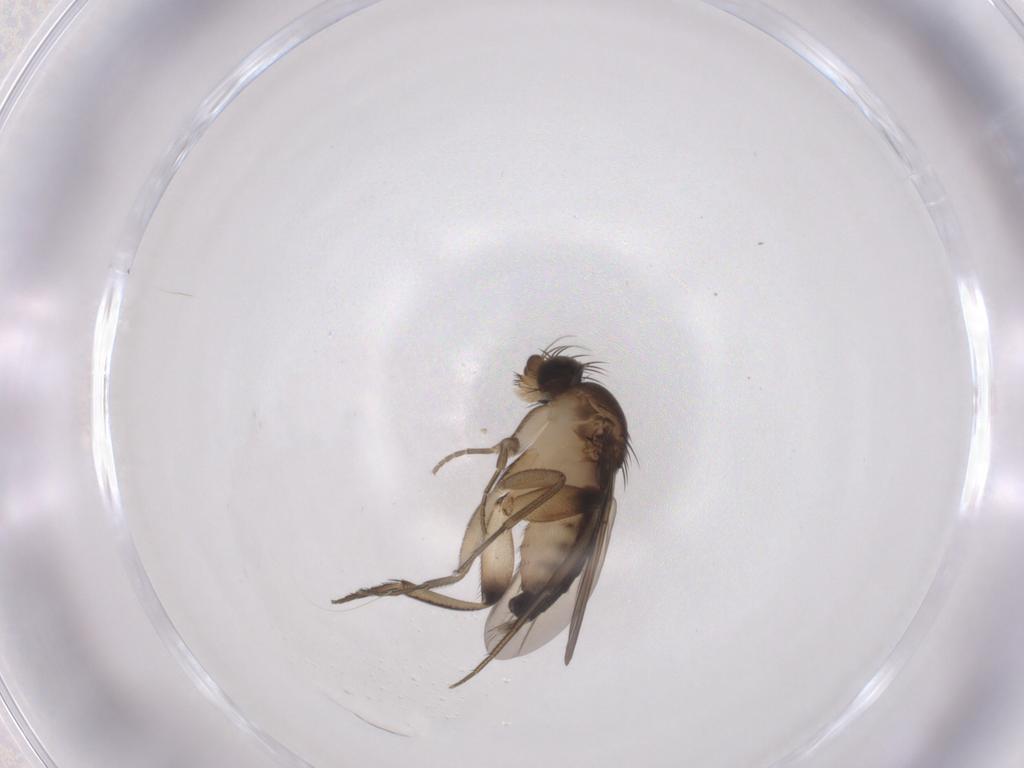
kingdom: Animalia
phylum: Arthropoda
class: Insecta
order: Diptera
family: Phoridae
